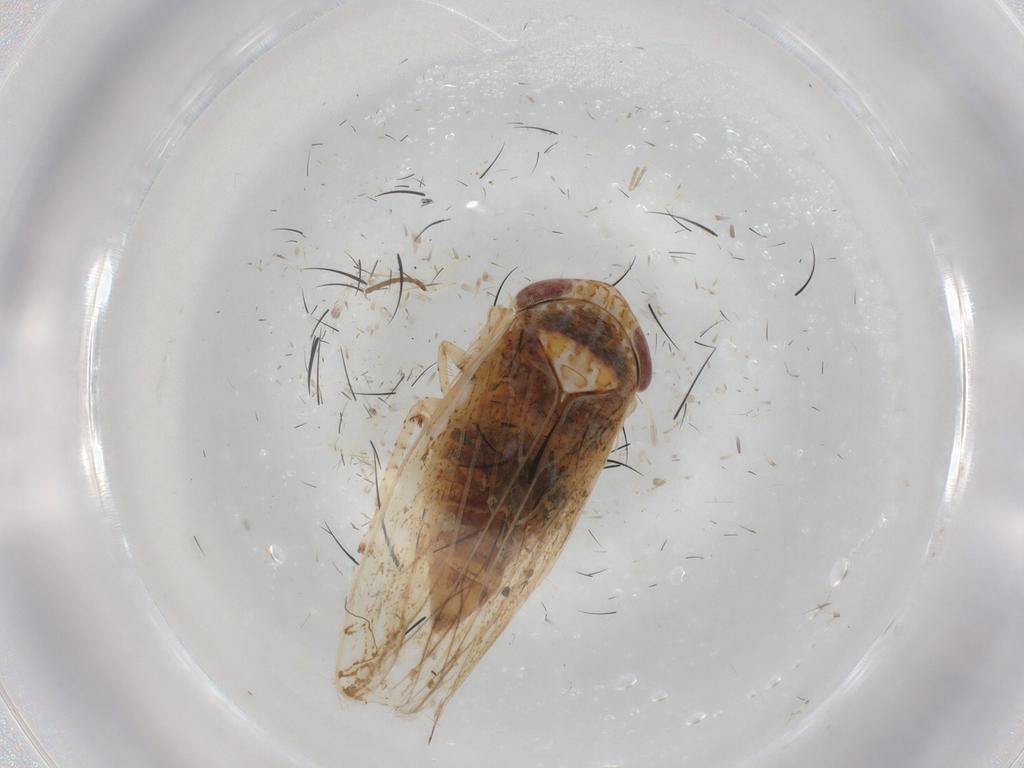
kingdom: Animalia
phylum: Arthropoda
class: Insecta
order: Hemiptera
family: Cicadellidae
